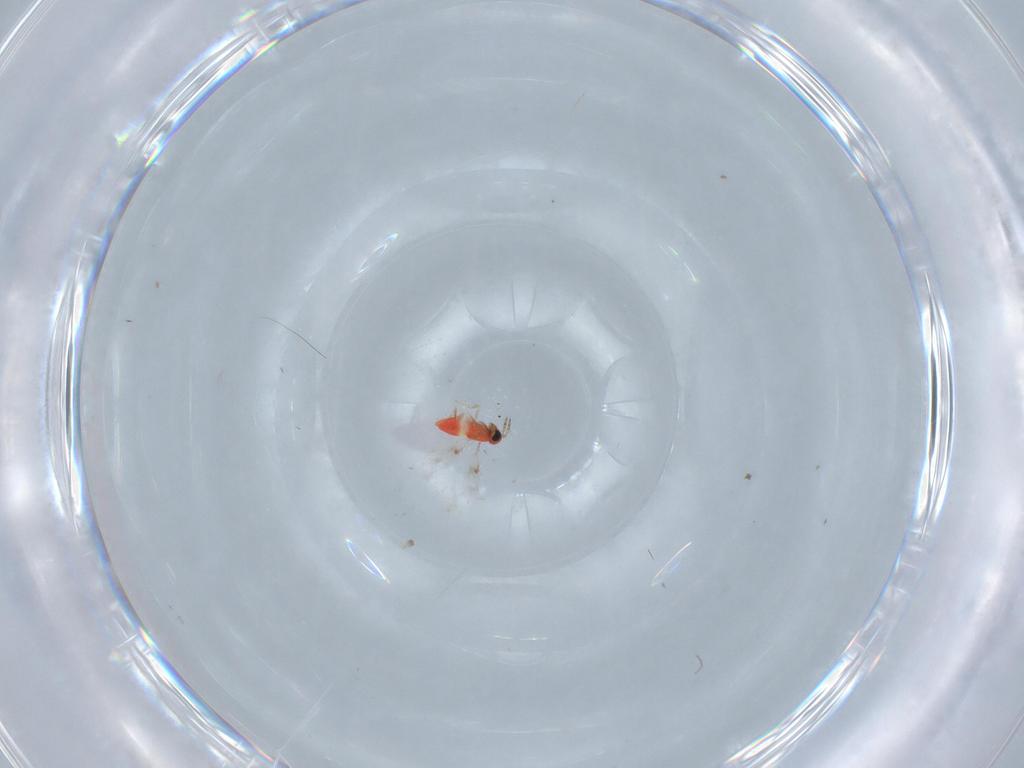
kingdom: Animalia
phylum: Arthropoda
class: Insecta
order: Hymenoptera
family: Trichogrammatidae
